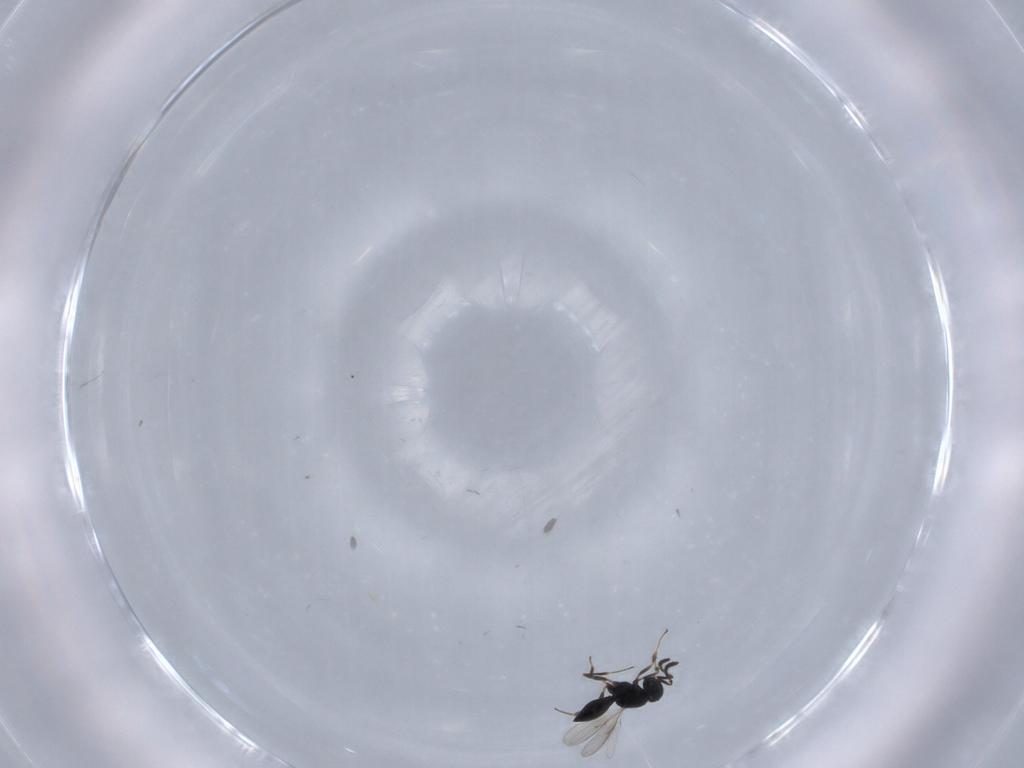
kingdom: Animalia
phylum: Arthropoda
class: Insecta
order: Hymenoptera
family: Scelionidae
